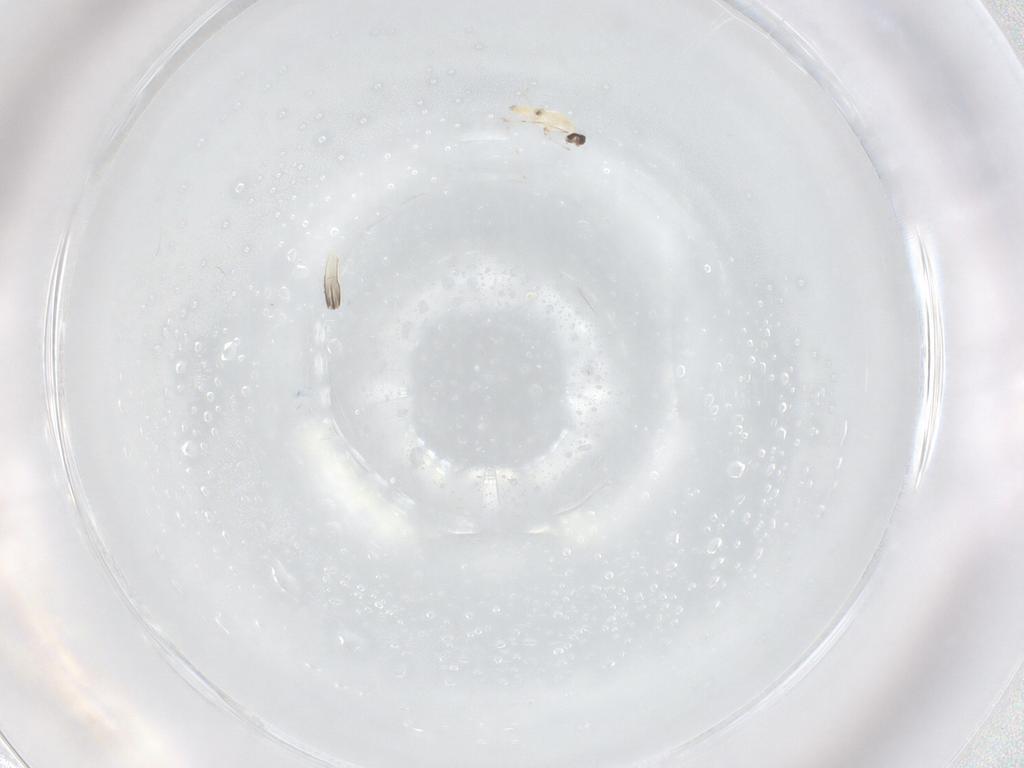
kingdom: Animalia
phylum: Arthropoda
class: Insecta
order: Diptera
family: Cecidomyiidae
